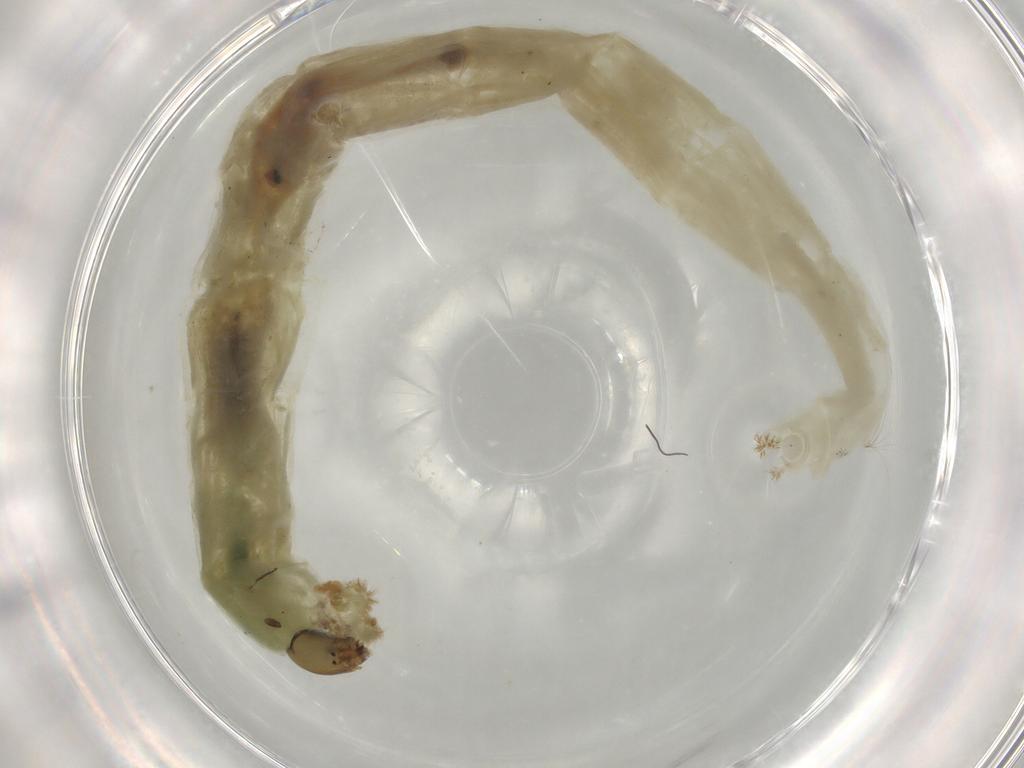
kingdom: Animalia
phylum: Arthropoda
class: Insecta
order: Diptera
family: Chironomidae
